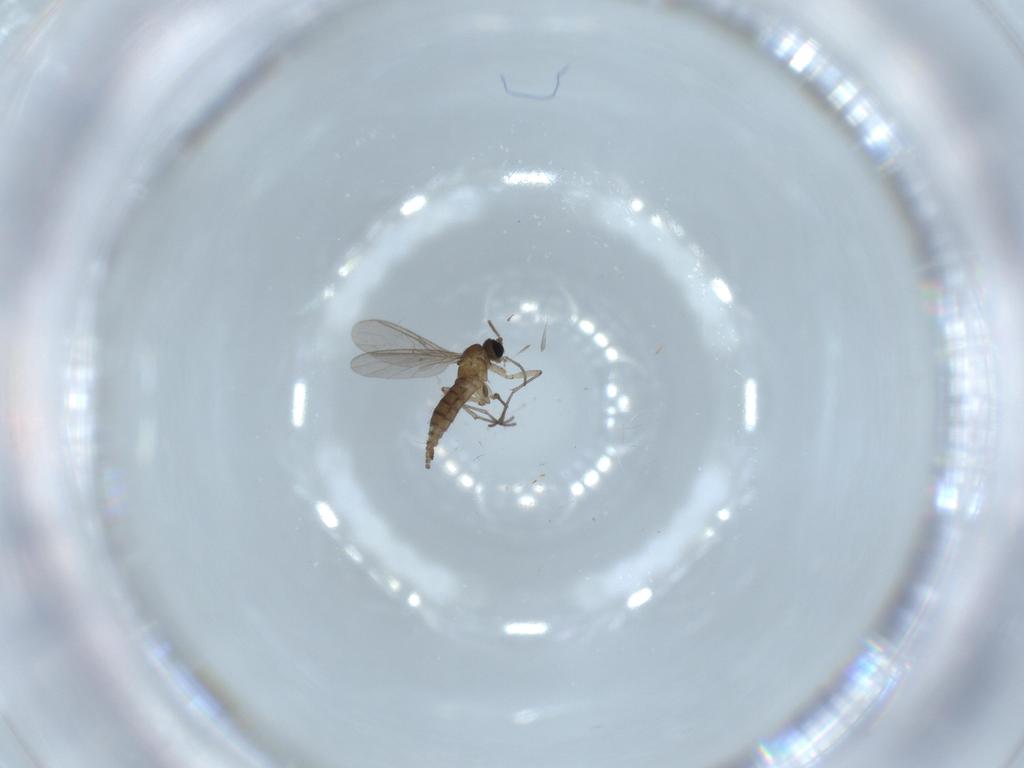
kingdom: Animalia
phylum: Arthropoda
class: Insecta
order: Diptera
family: Sciaridae
